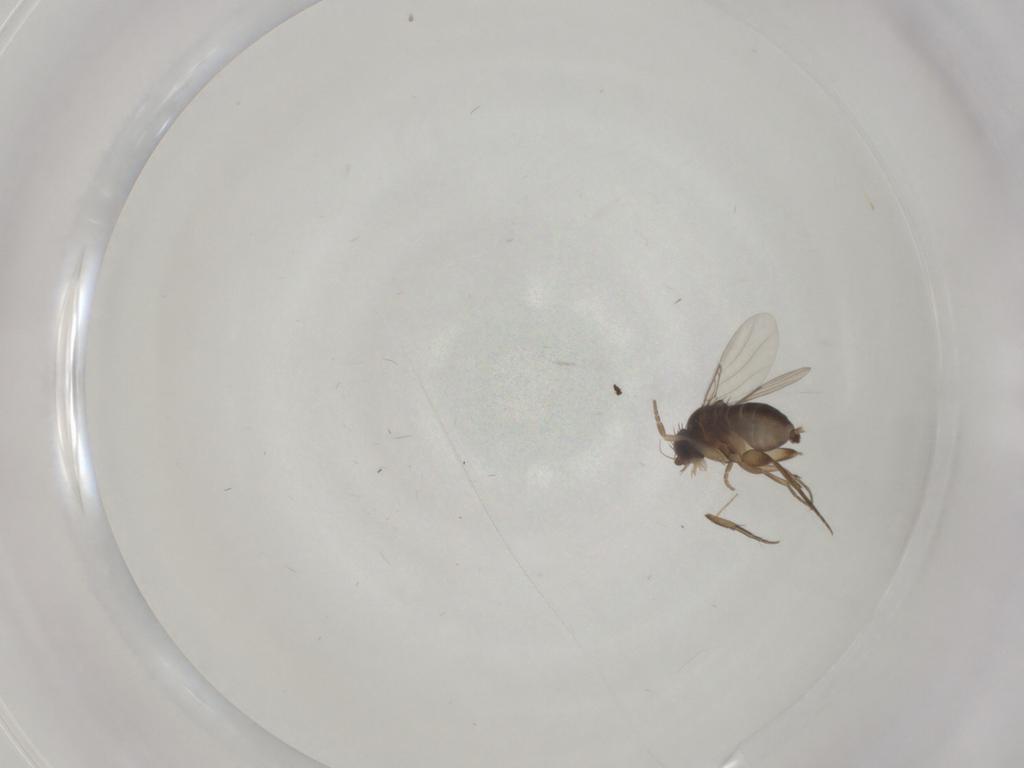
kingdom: Animalia
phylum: Arthropoda
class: Insecta
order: Diptera
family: Phoridae
